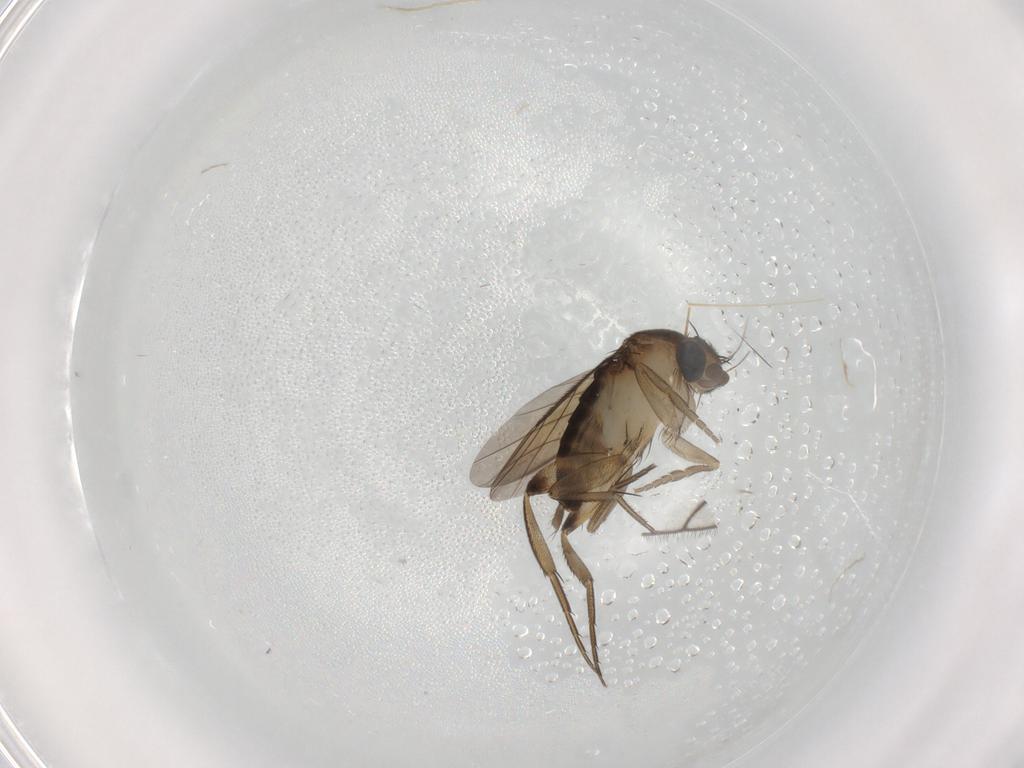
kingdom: Animalia
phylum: Arthropoda
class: Insecta
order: Diptera
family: Phoridae
